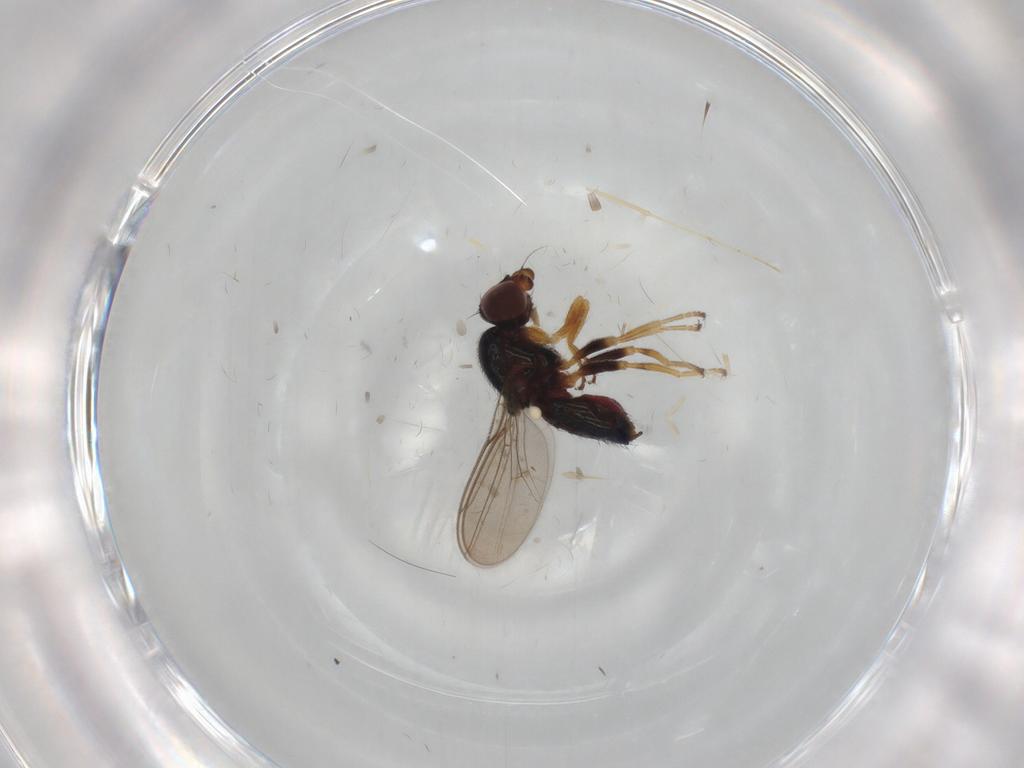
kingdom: Animalia
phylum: Arthropoda
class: Insecta
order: Diptera
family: Chloropidae
